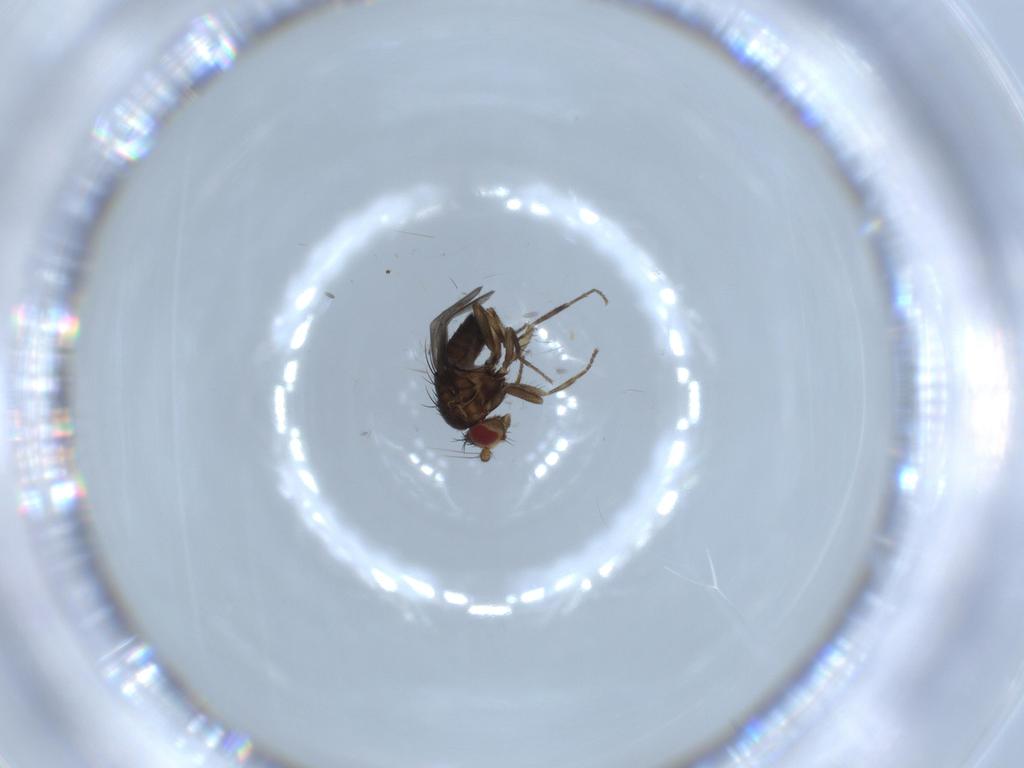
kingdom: Animalia
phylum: Arthropoda
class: Insecta
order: Diptera
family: Sphaeroceridae
